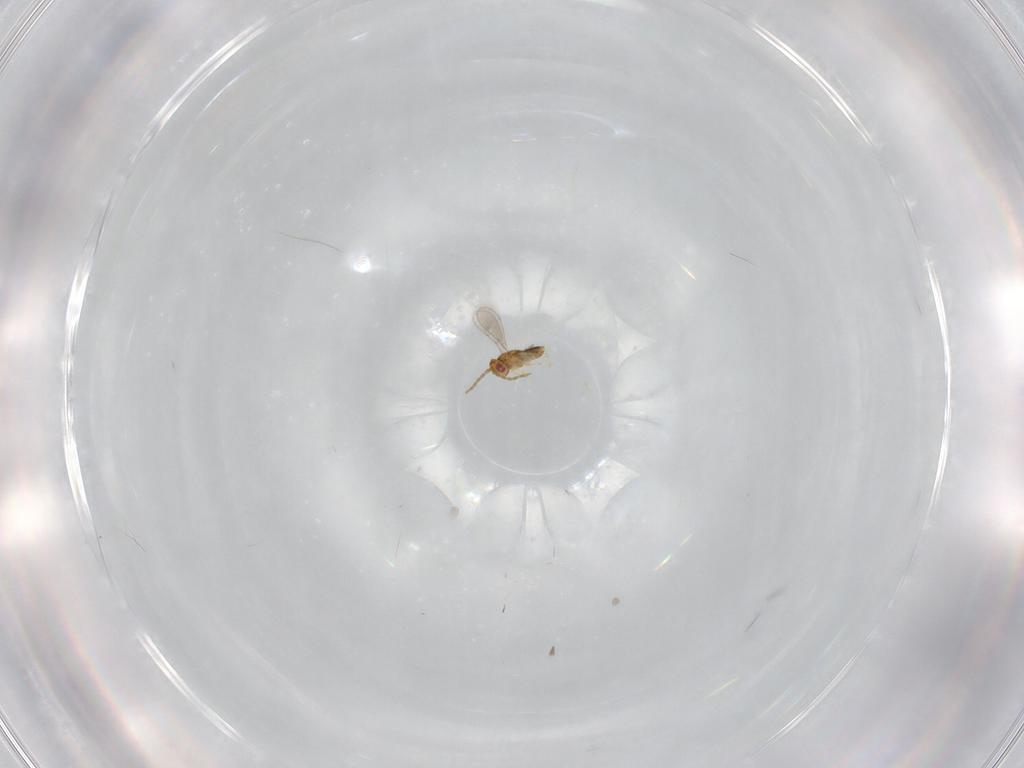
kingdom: Animalia
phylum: Arthropoda
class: Insecta
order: Hymenoptera
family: Scelionidae
